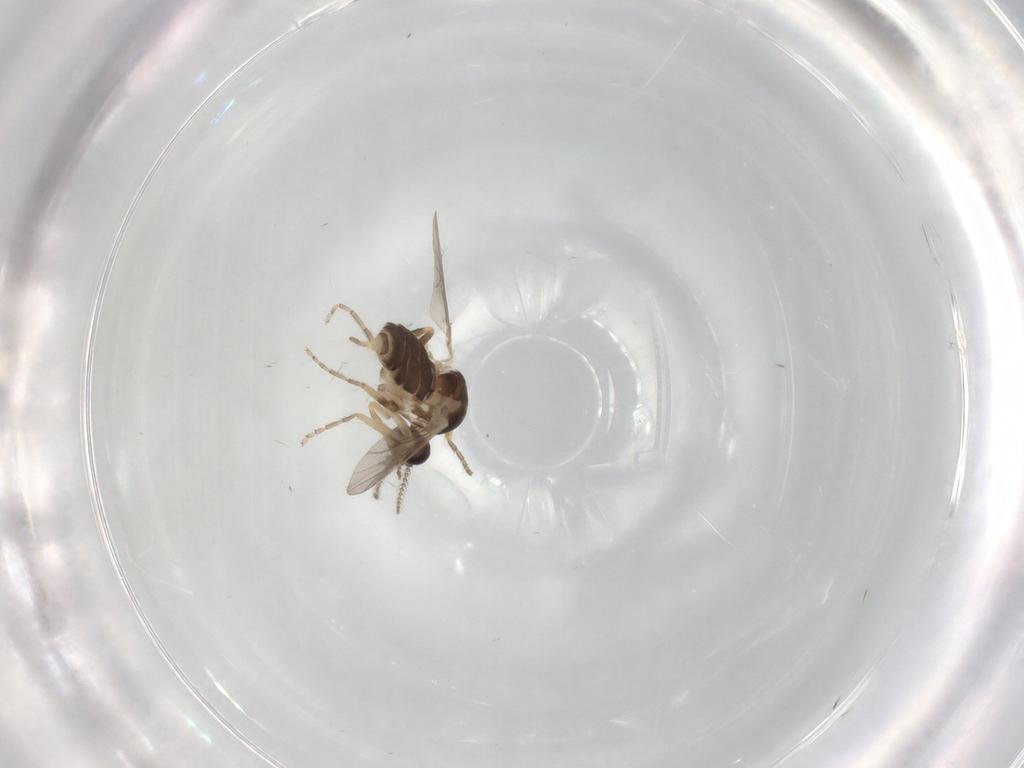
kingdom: Animalia
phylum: Arthropoda
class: Insecta
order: Diptera
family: Ceratopogonidae
